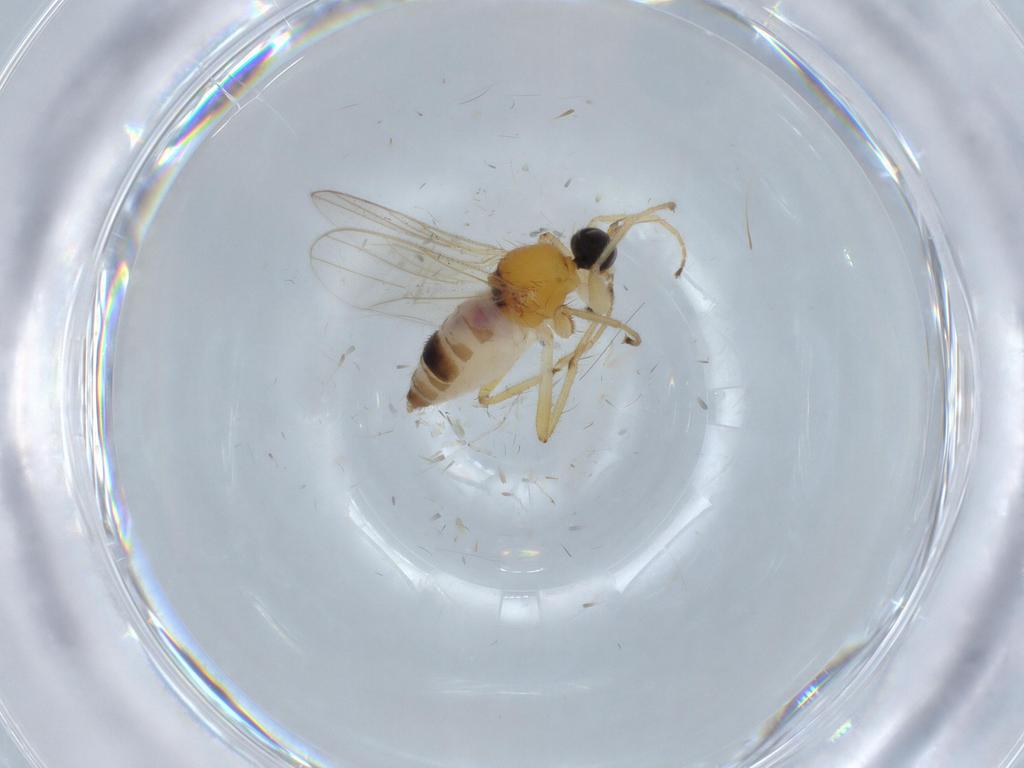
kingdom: Animalia
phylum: Arthropoda
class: Insecta
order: Diptera
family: Hybotidae
